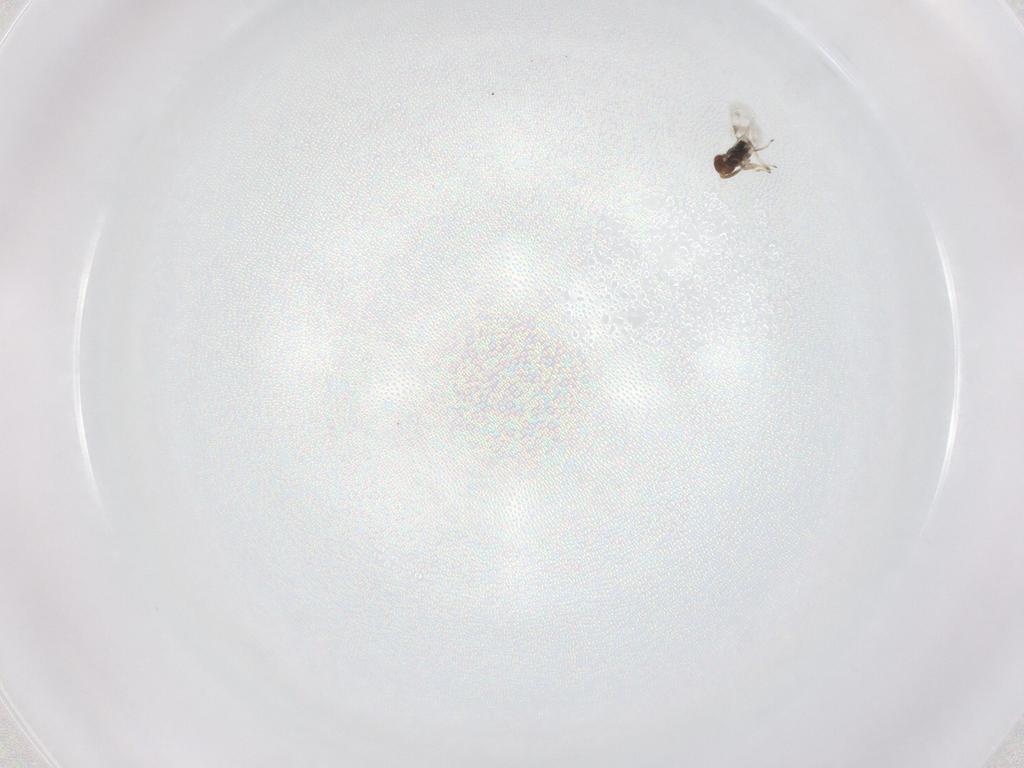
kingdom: Animalia
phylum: Arthropoda
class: Insecta
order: Hymenoptera
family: Azotidae
